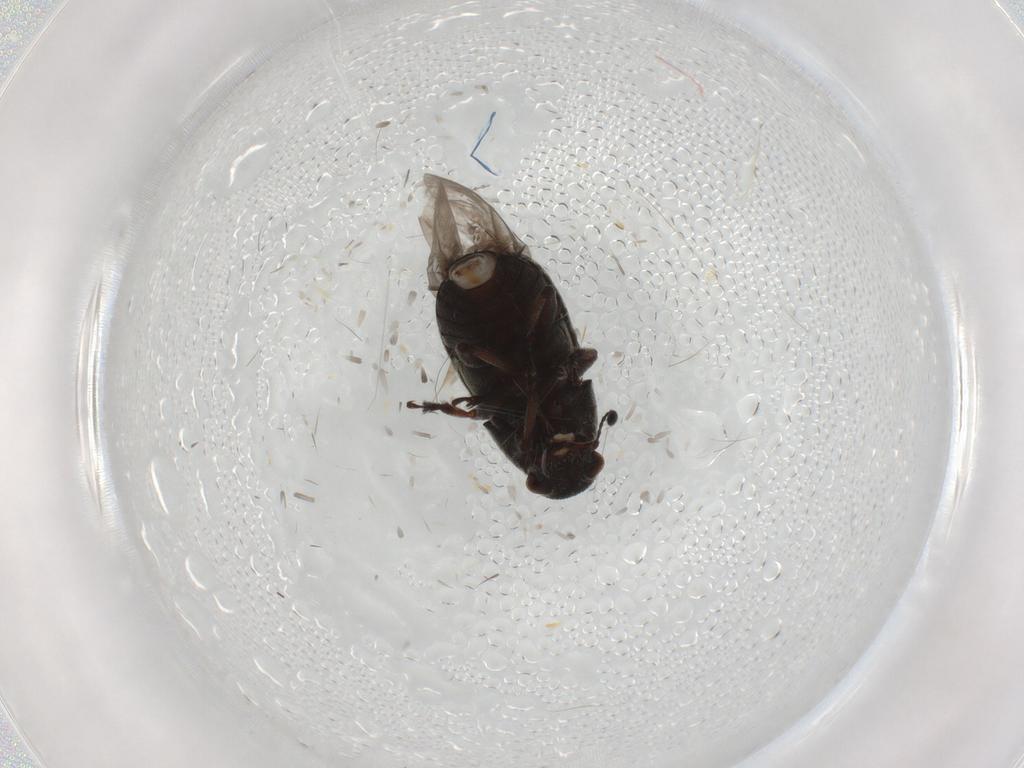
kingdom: Animalia
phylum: Arthropoda
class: Insecta
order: Coleoptera
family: Anthribidae
